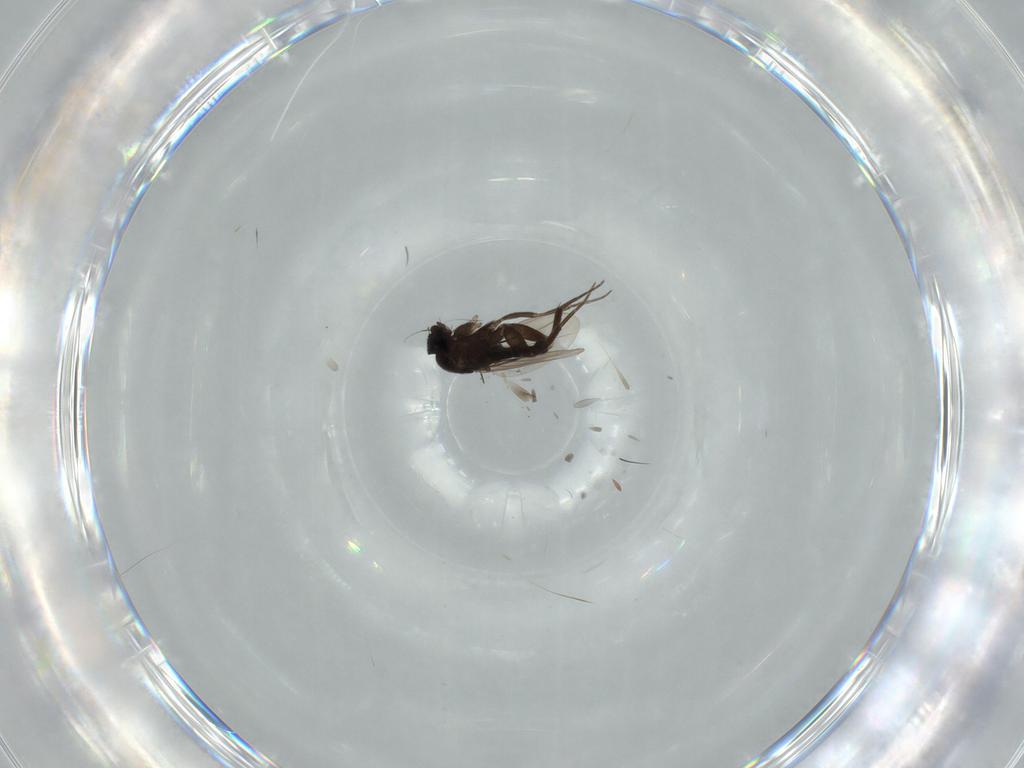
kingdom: Animalia
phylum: Arthropoda
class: Insecta
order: Diptera
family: Phoridae
